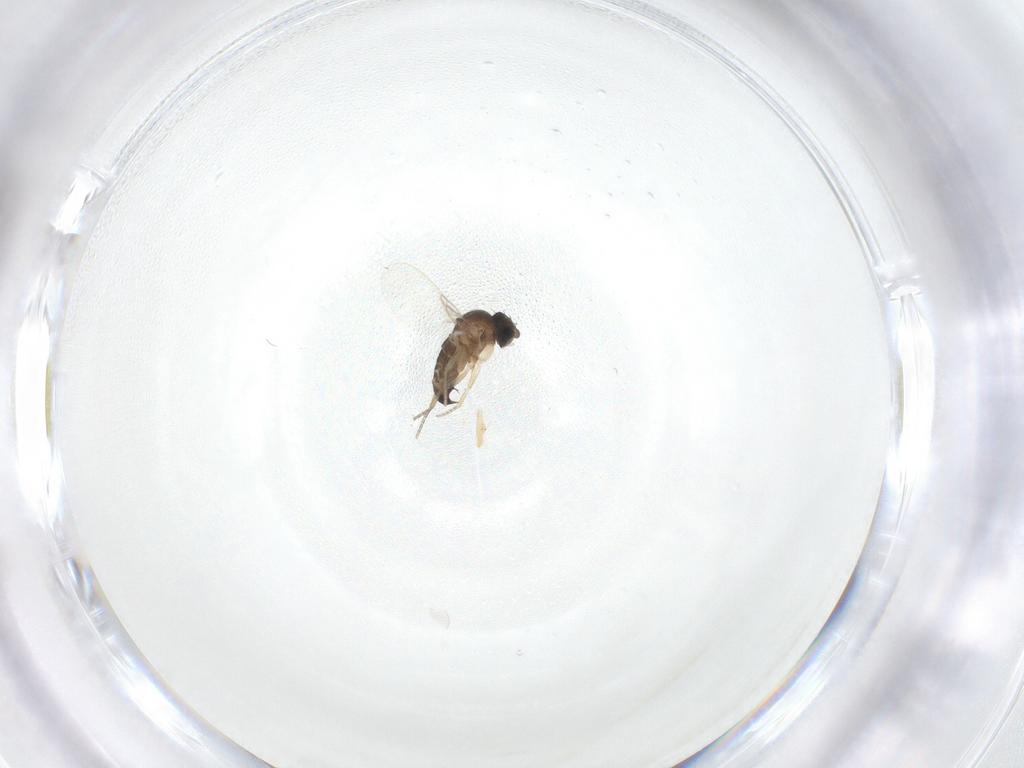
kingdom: Animalia
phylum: Arthropoda
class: Insecta
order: Diptera
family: Phoridae
